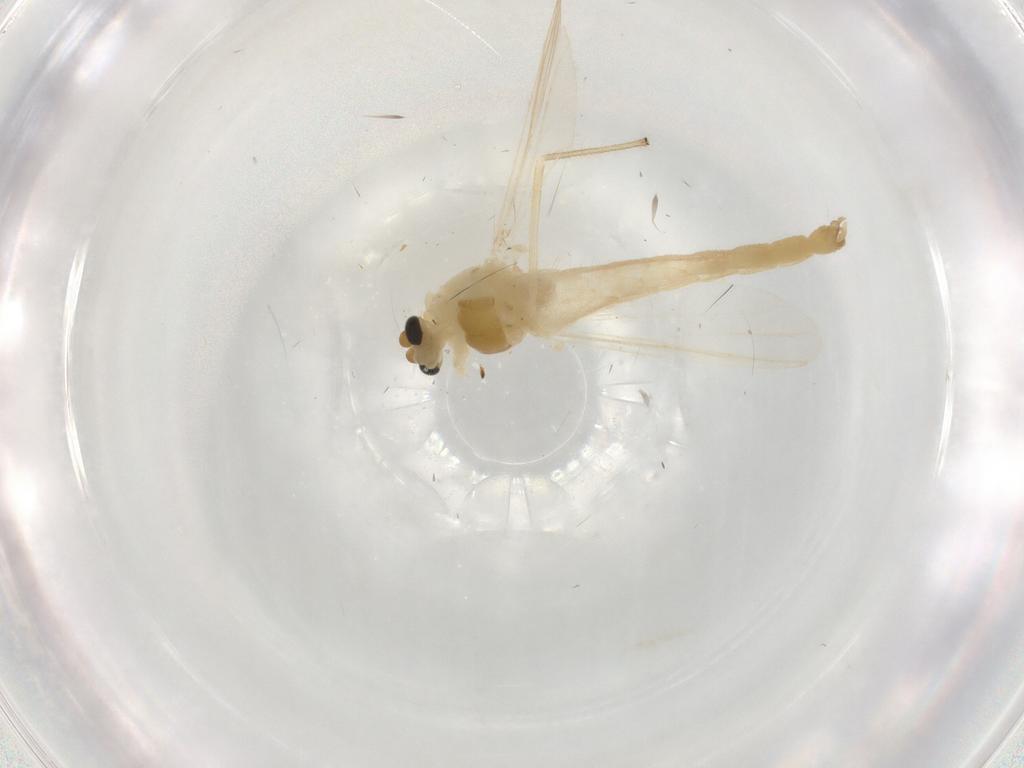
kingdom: Animalia
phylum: Arthropoda
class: Insecta
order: Diptera
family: Chironomidae
